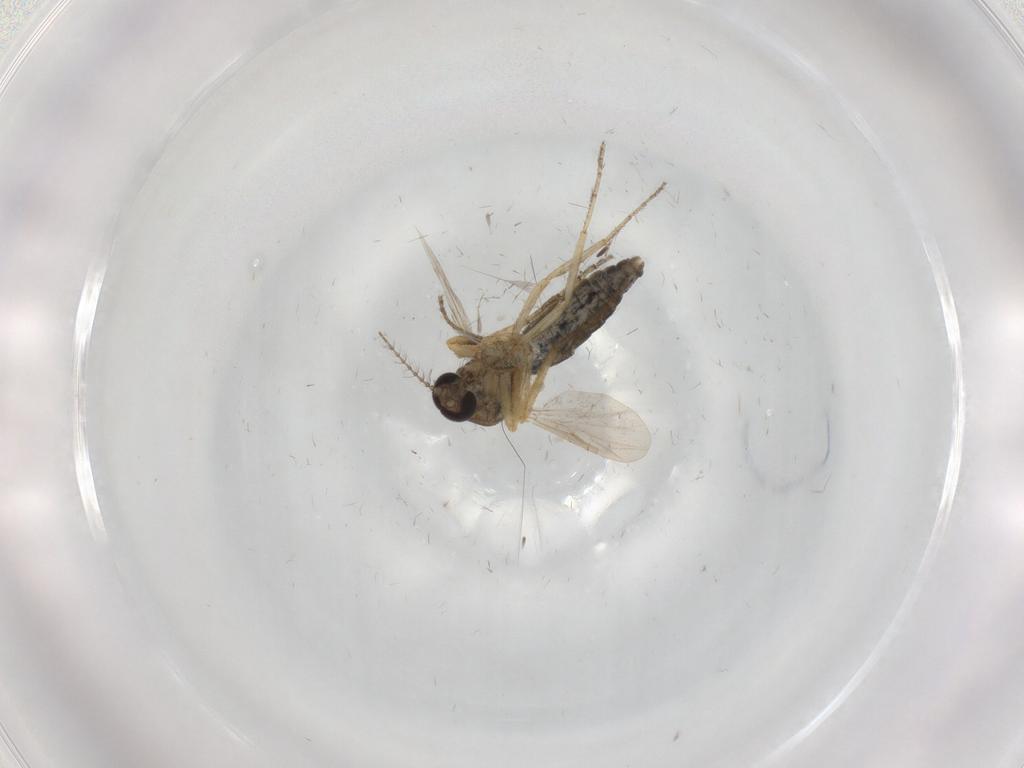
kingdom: Animalia
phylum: Arthropoda
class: Insecta
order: Diptera
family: Ceratopogonidae
